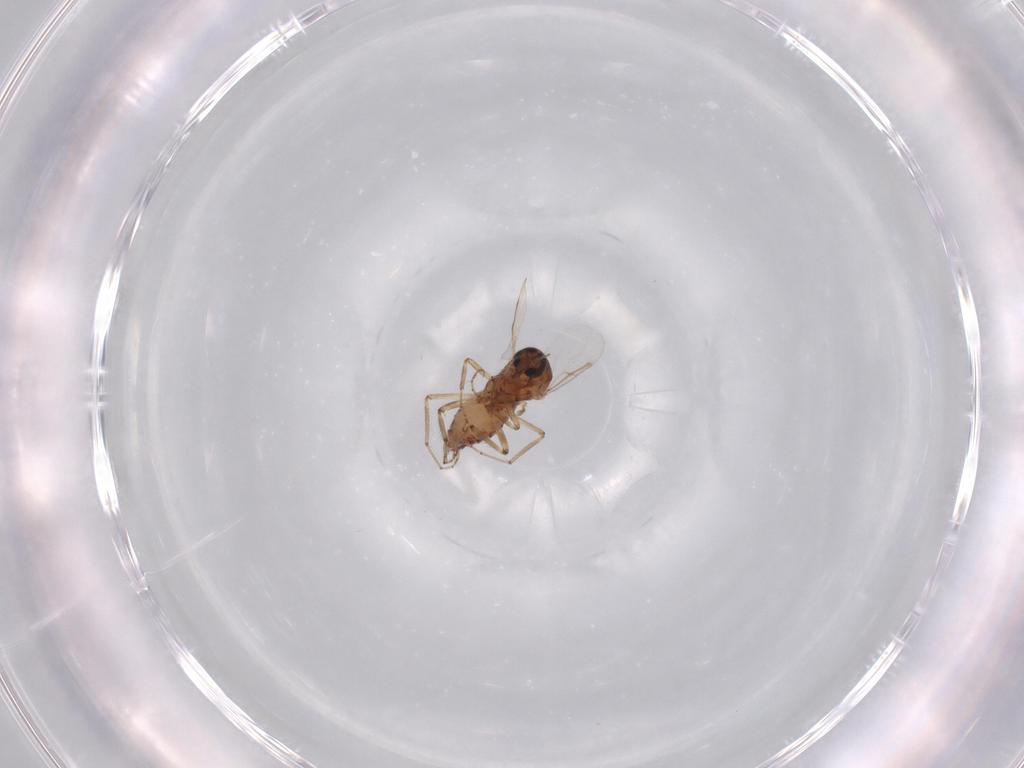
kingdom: Animalia
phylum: Arthropoda
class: Insecta
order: Diptera
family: Ceratopogonidae
